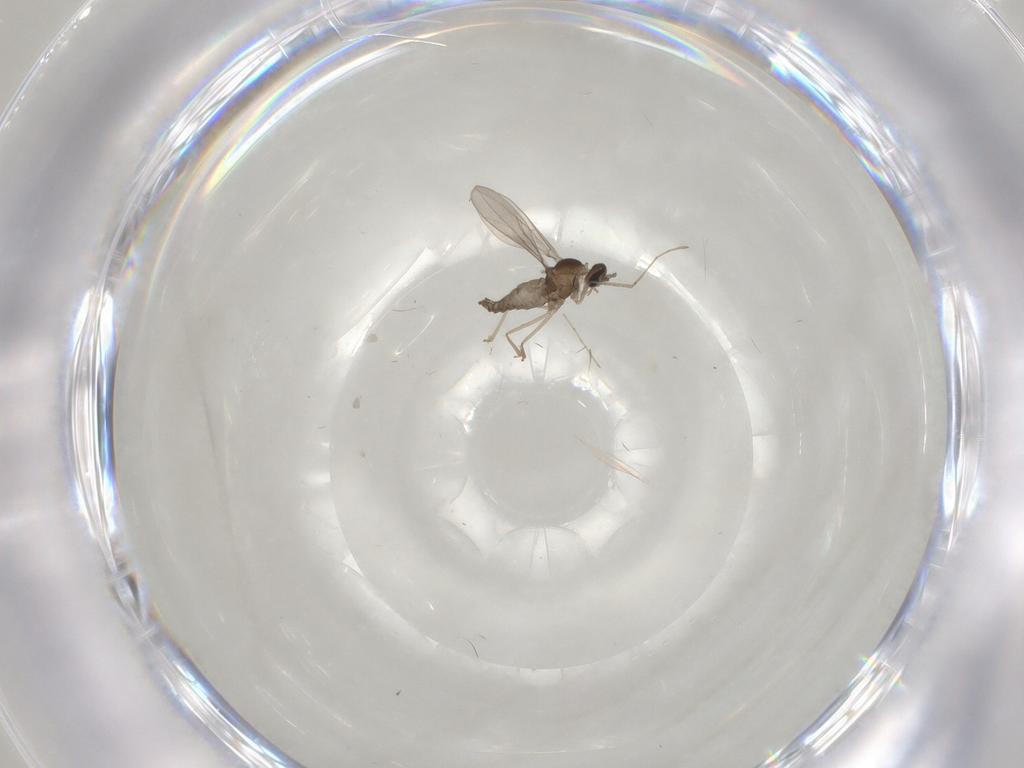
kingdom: Animalia
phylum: Arthropoda
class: Insecta
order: Diptera
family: Cecidomyiidae
